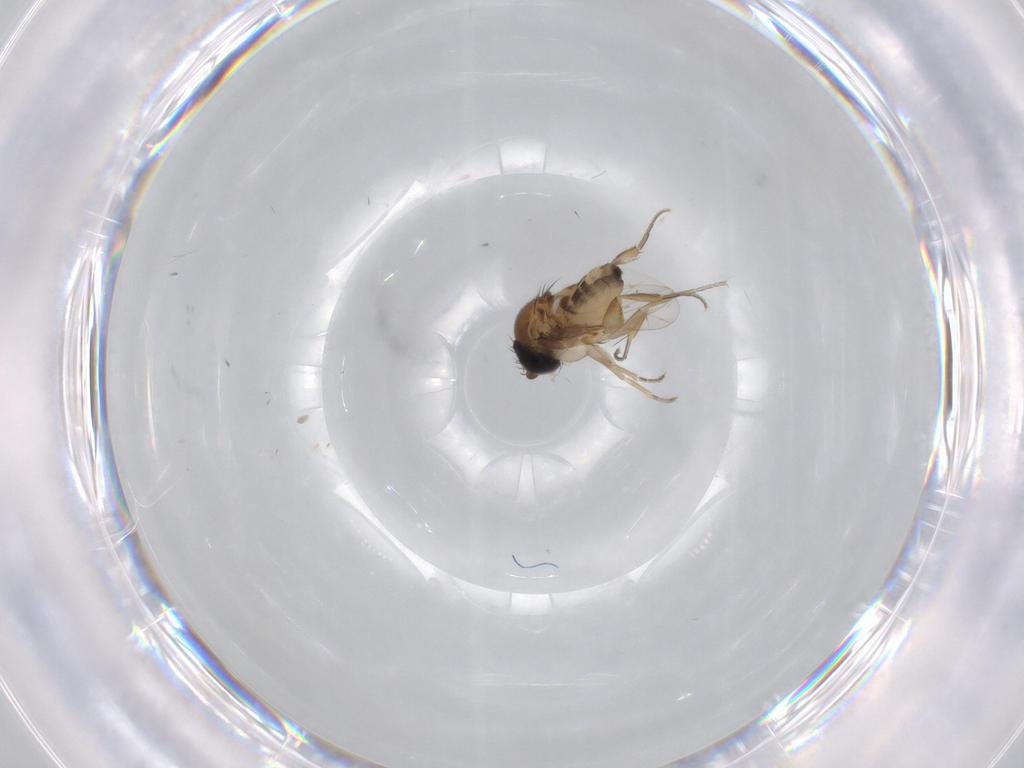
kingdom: Animalia
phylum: Arthropoda
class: Insecta
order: Diptera
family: Phoridae
